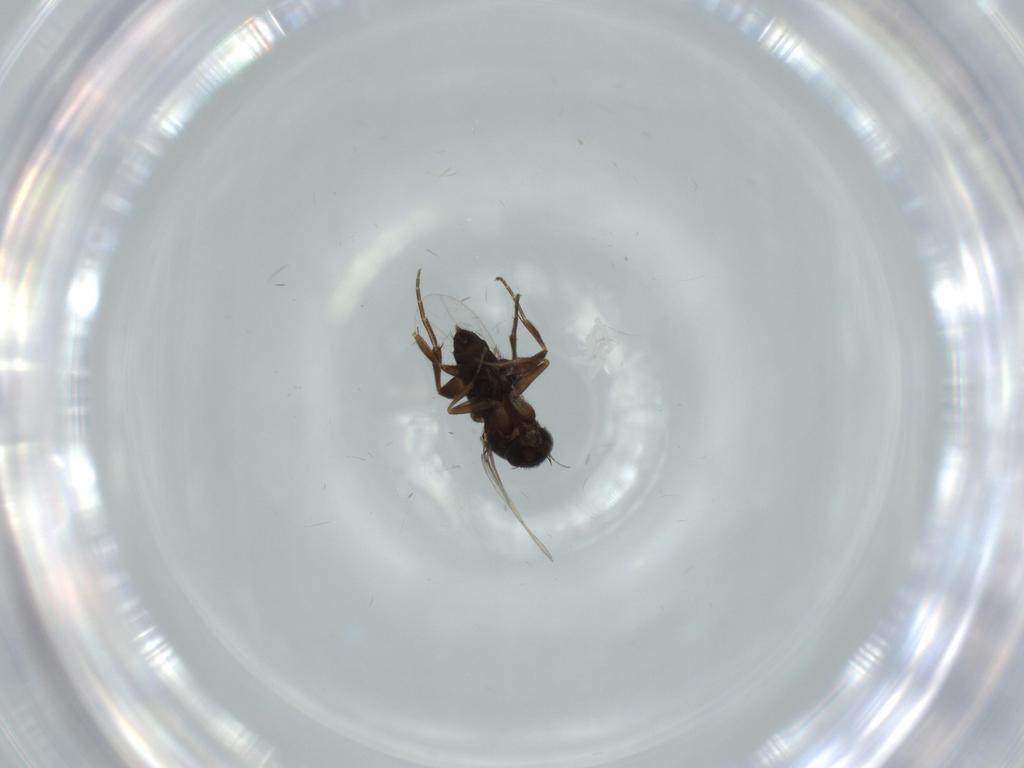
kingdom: Animalia
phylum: Arthropoda
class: Insecta
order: Diptera
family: Phoridae
